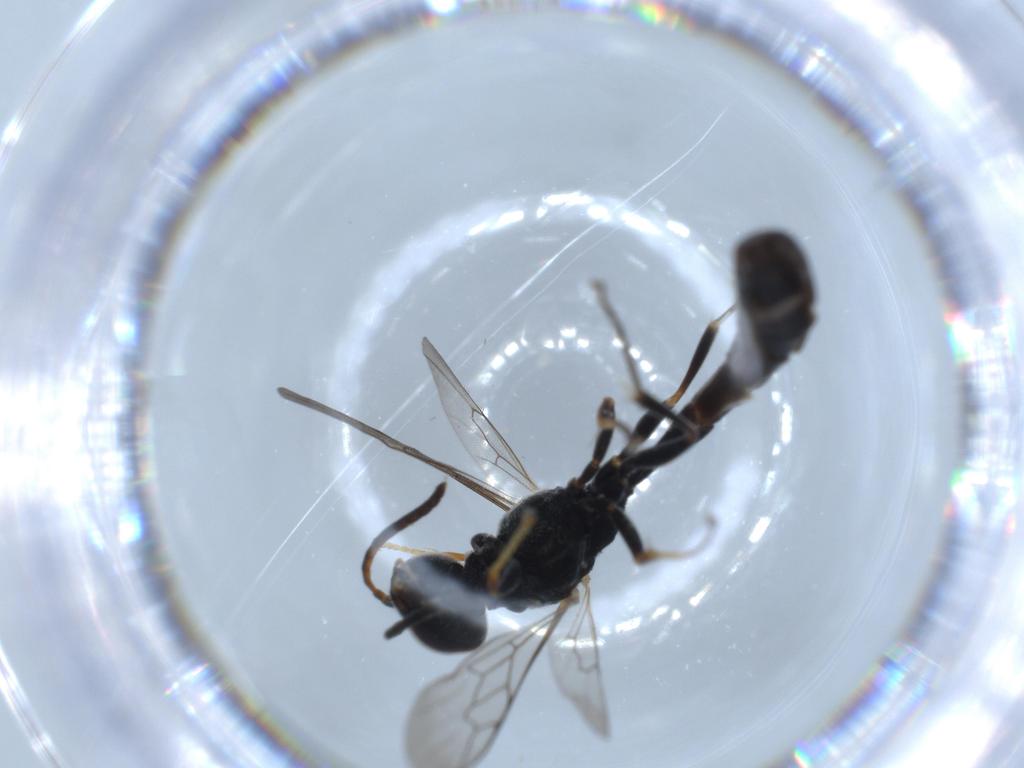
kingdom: Animalia
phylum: Arthropoda
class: Insecta
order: Hymenoptera
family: Crabronidae
